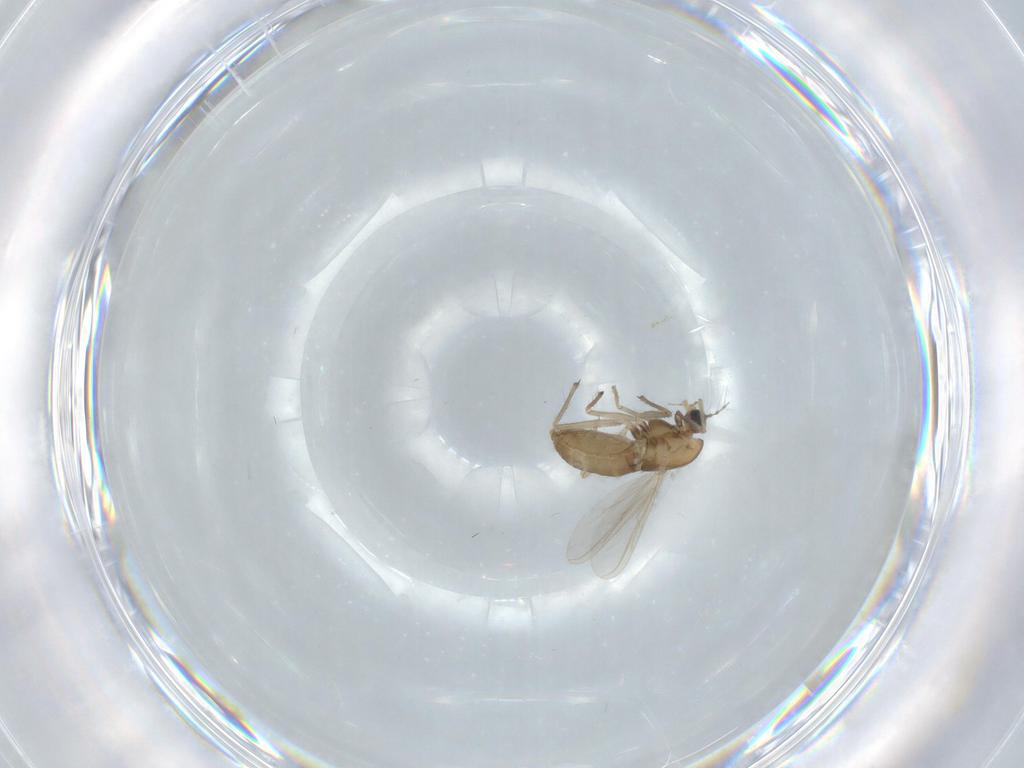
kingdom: Animalia
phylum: Arthropoda
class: Insecta
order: Diptera
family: Chironomidae
